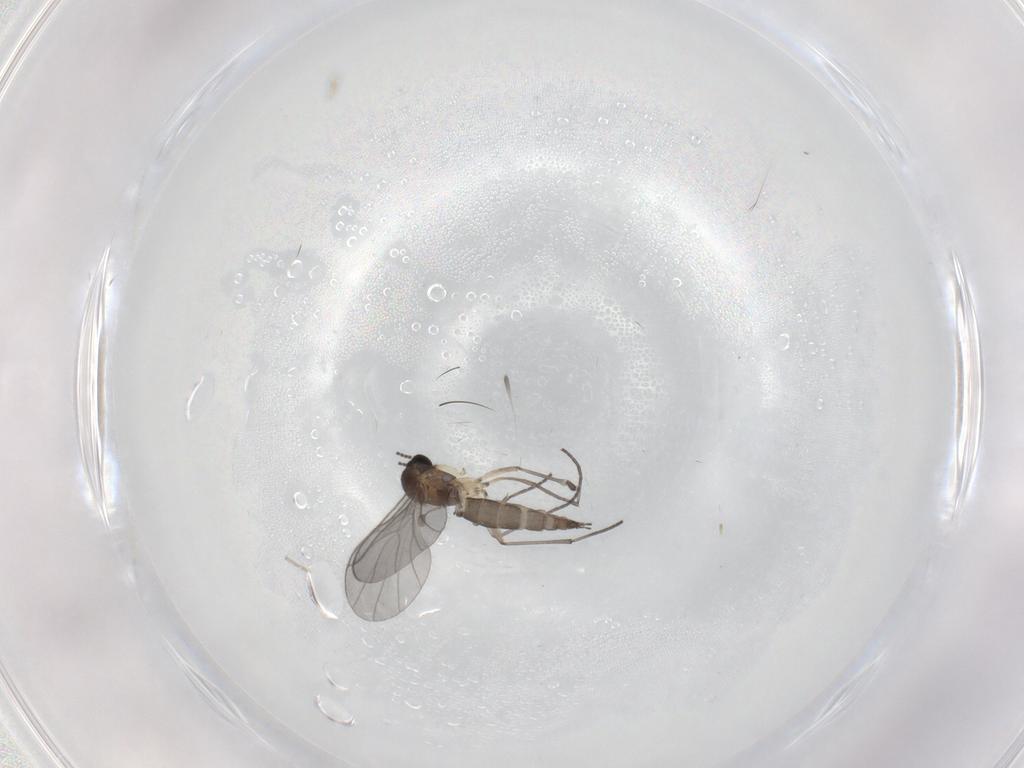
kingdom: Animalia
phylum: Arthropoda
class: Insecta
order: Diptera
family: Sciaridae
